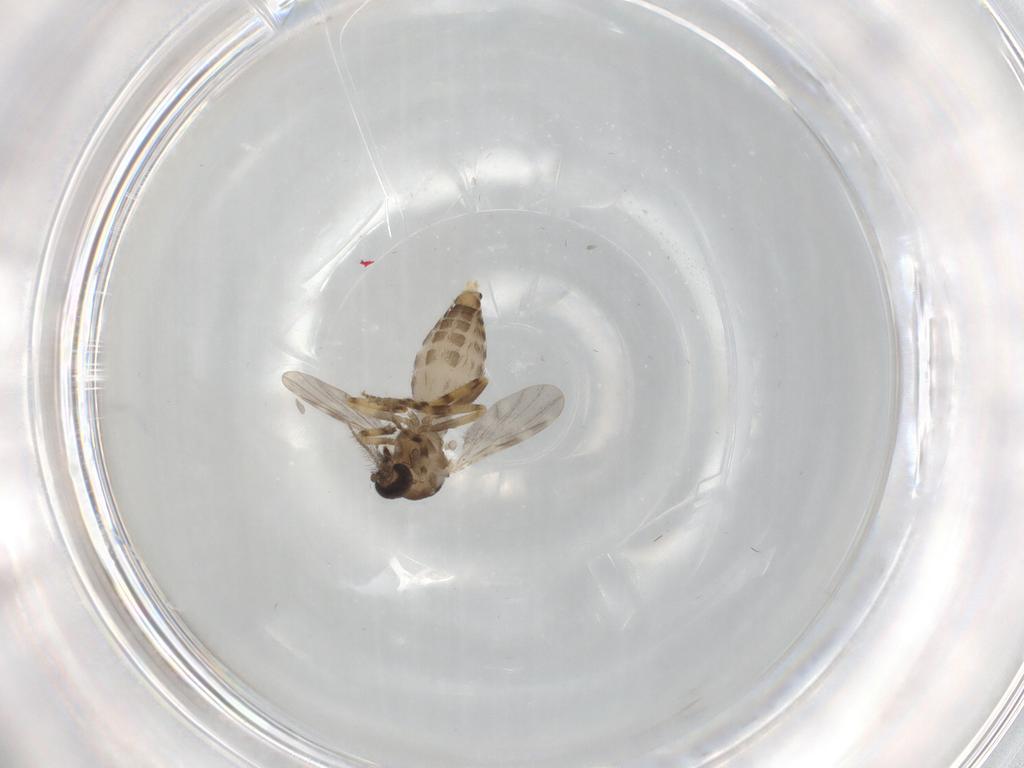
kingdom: Animalia
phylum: Arthropoda
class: Insecta
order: Diptera
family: Ceratopogonidae
